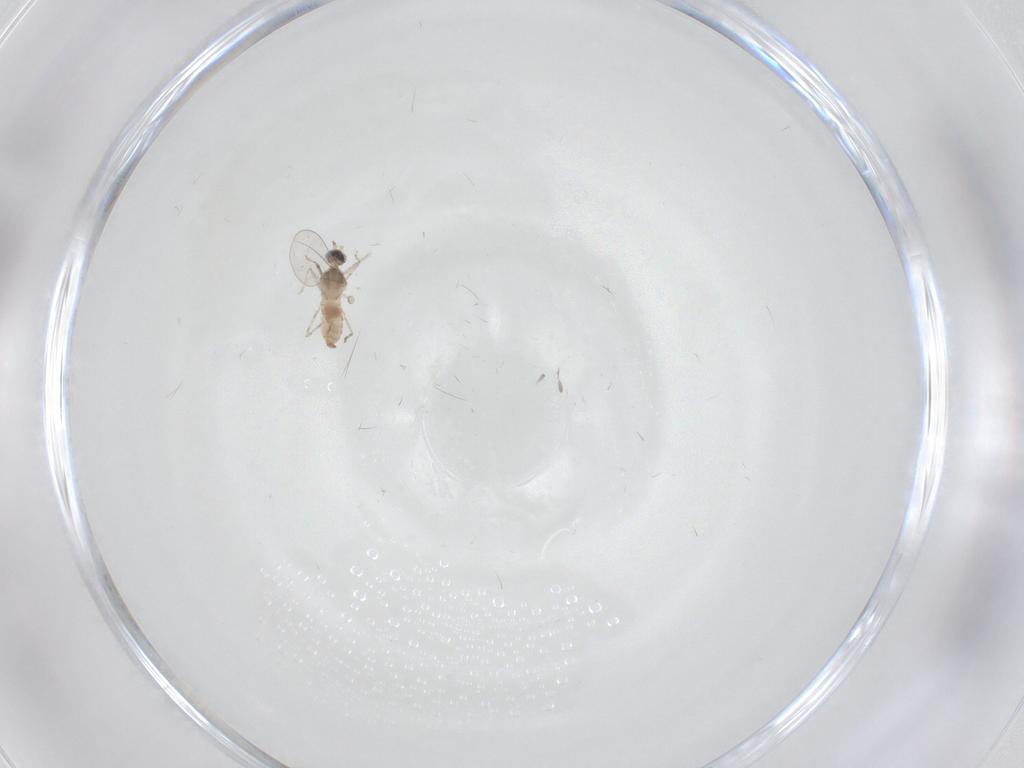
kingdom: Animalia
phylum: Arthropoda
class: Insecta
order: Diptera
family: Cecidomyiidae
